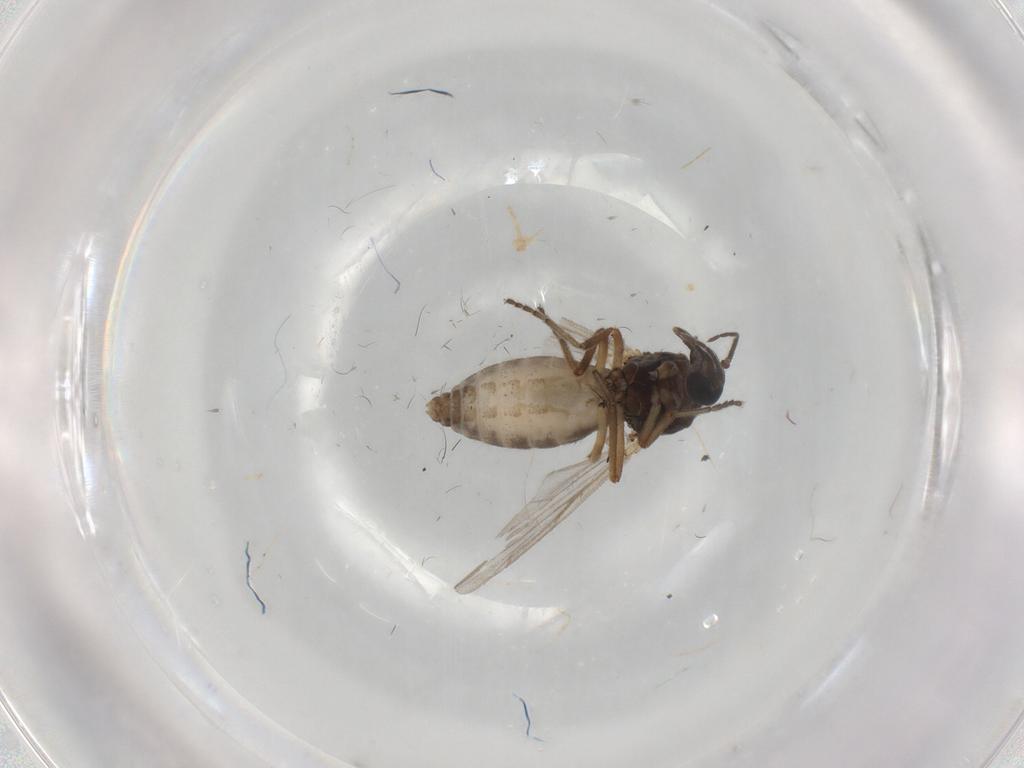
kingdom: Animalia
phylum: Arthropoda
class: Insecta
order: Diptera
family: Ceratopogonidae
